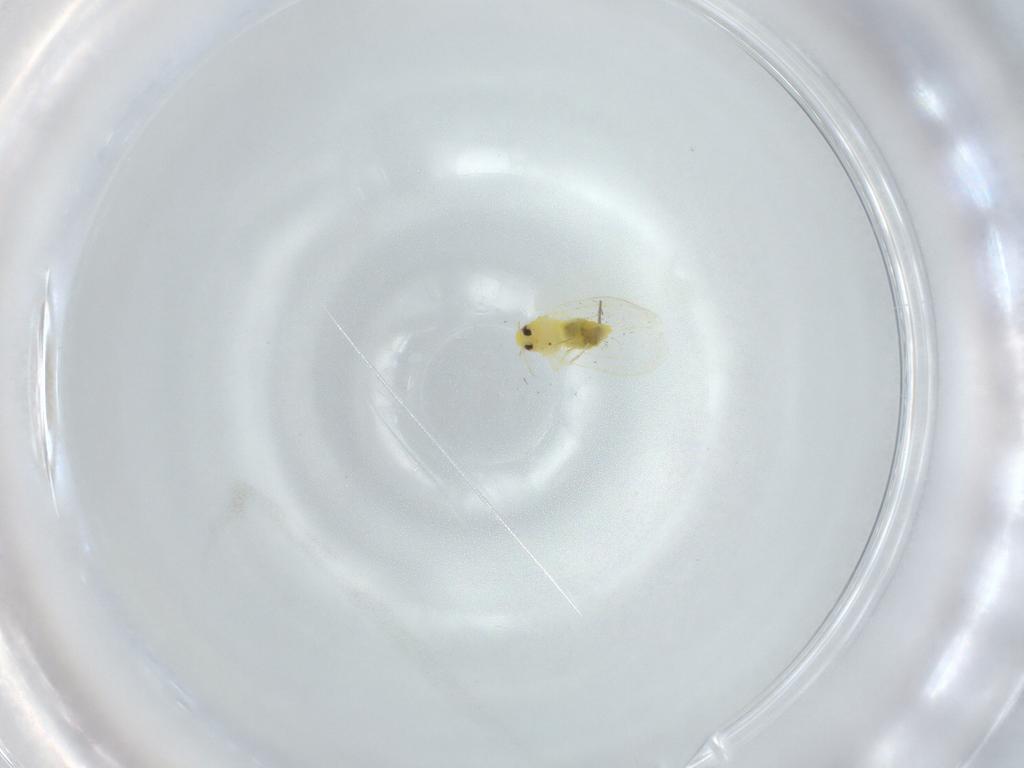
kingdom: Animalia
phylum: Arthropoda
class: Insecta
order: Hemiptera
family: Aleyrodidae
